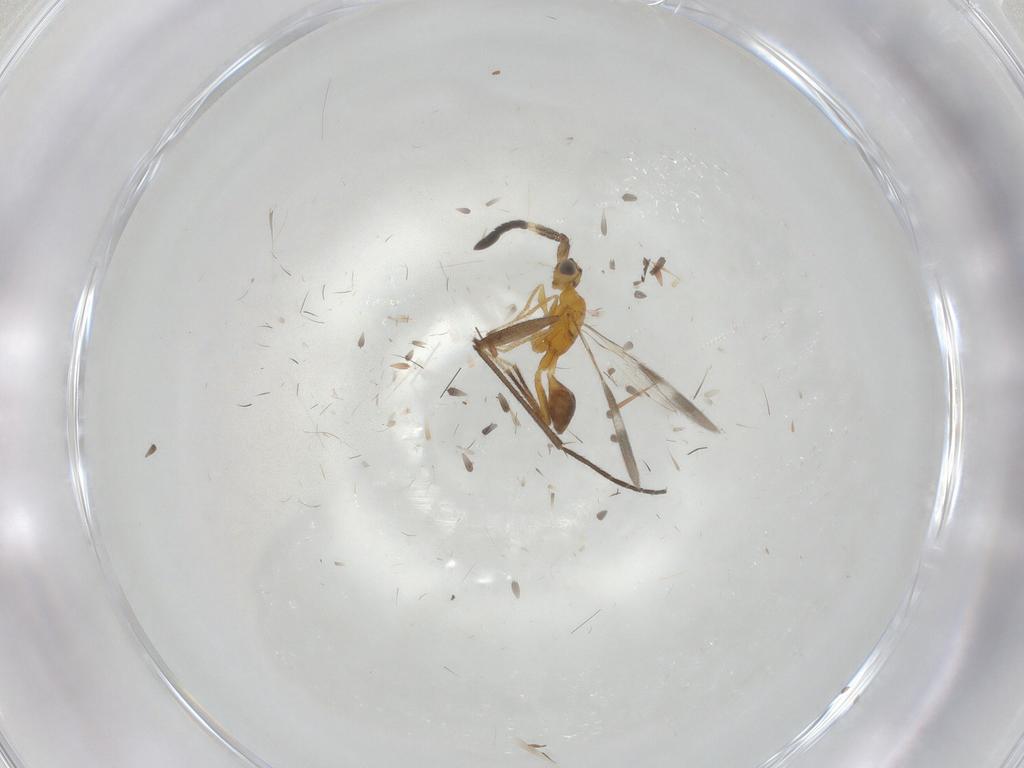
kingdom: Animalia
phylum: Arthropoda
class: Insecta
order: Hymenoptera
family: Mymaridae
